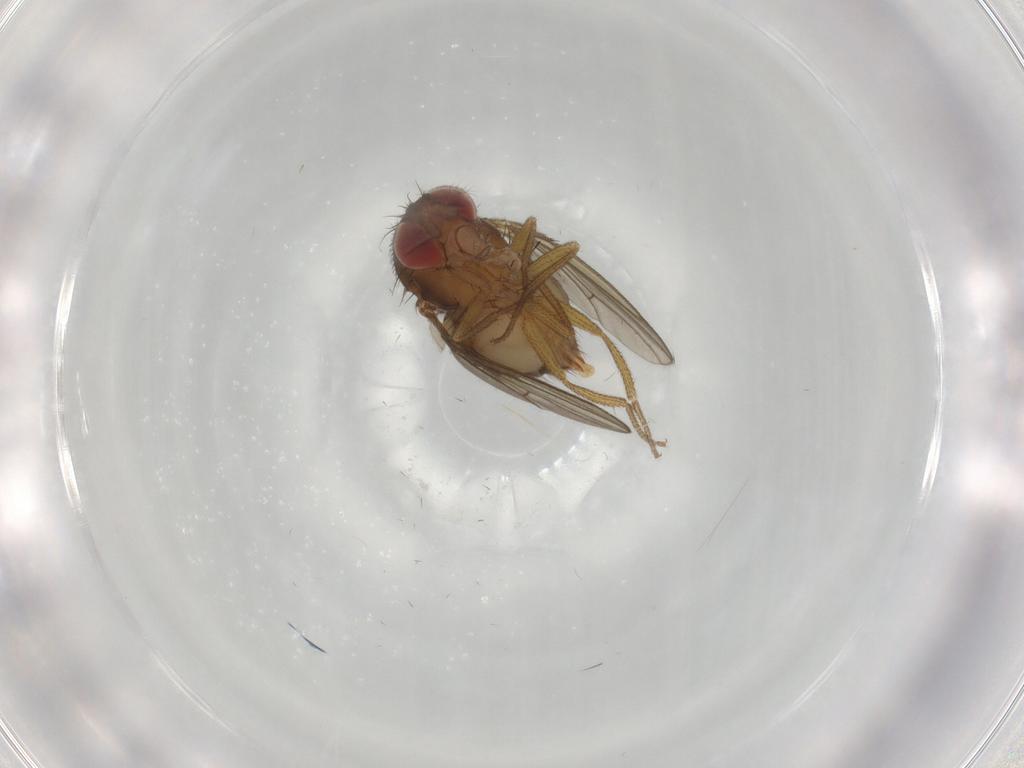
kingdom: Animalia
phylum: Arthropoda
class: Insecta
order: Diptera
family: Drosophilidae
